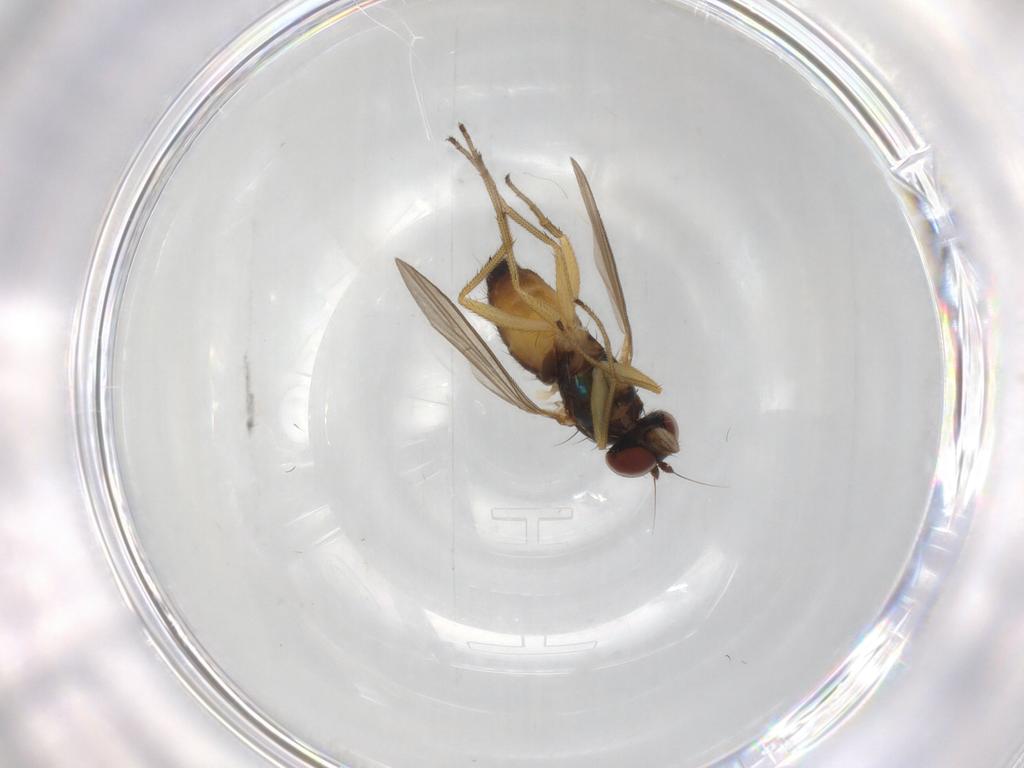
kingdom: Animalia
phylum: Arthropoda
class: Insecta
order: Diptera
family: Dolichopodidae
